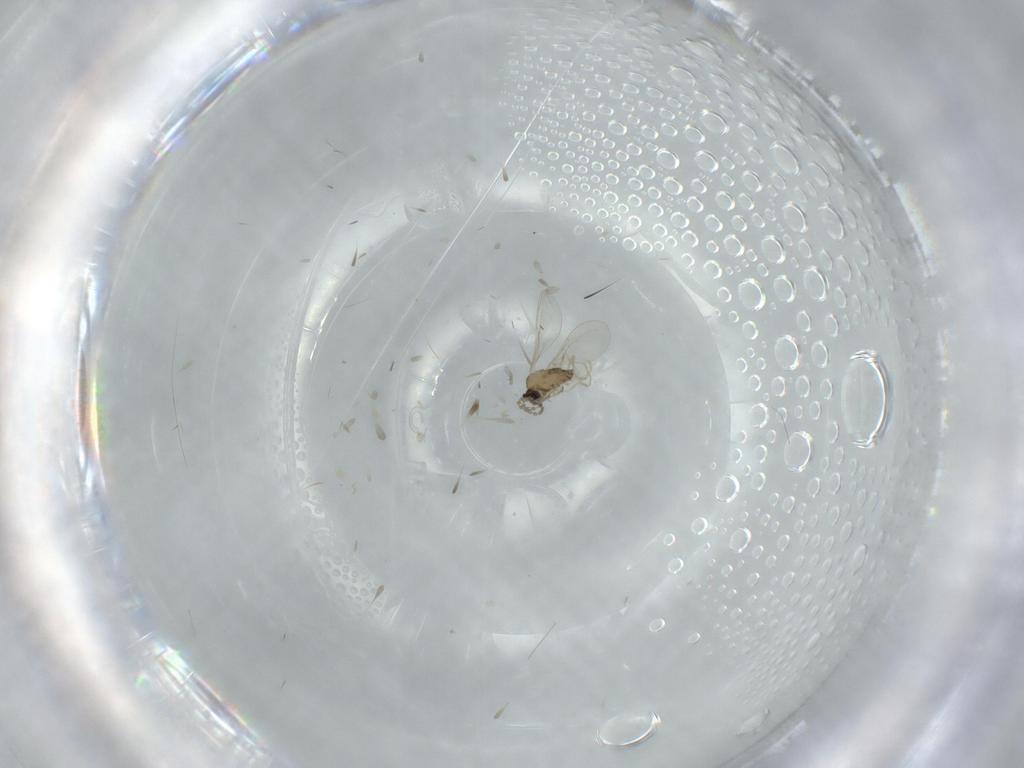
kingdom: Animalia
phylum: Arthropoda
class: Insecta
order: Diptera
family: Cecidomyiidae
